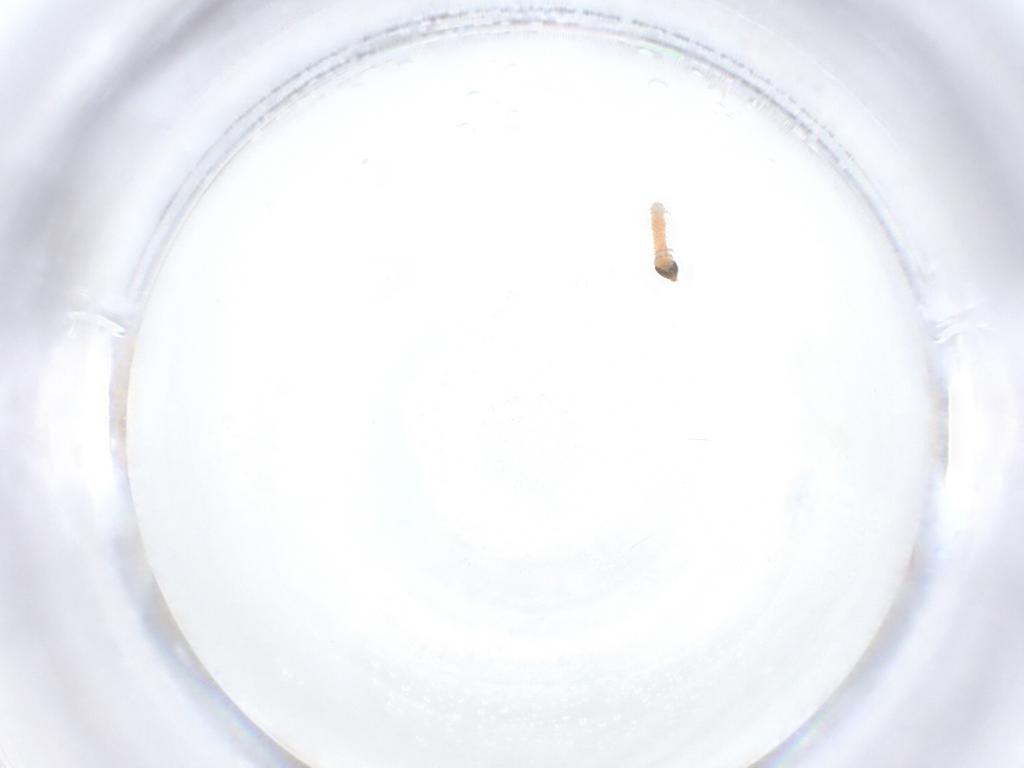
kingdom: Animalia
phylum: Arthropoda
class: Insecta
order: Lepidoptera
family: Crambidae
